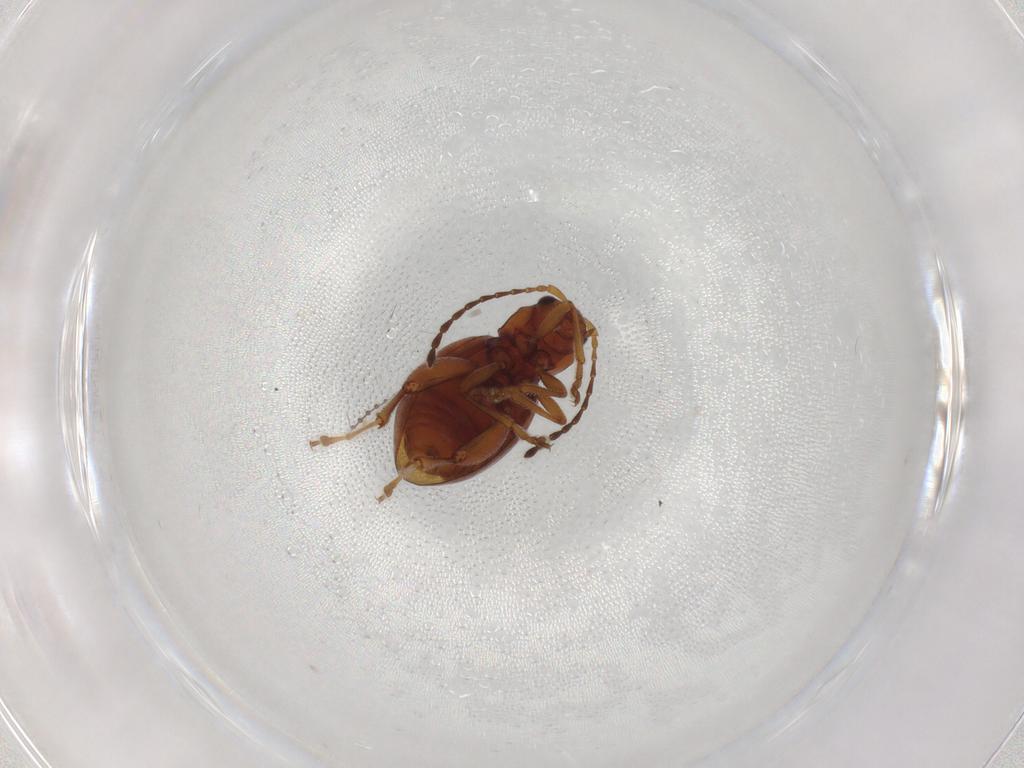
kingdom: Animalia
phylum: Arthropoda
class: Insecta
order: Coleoptera
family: Chrysomelidae
